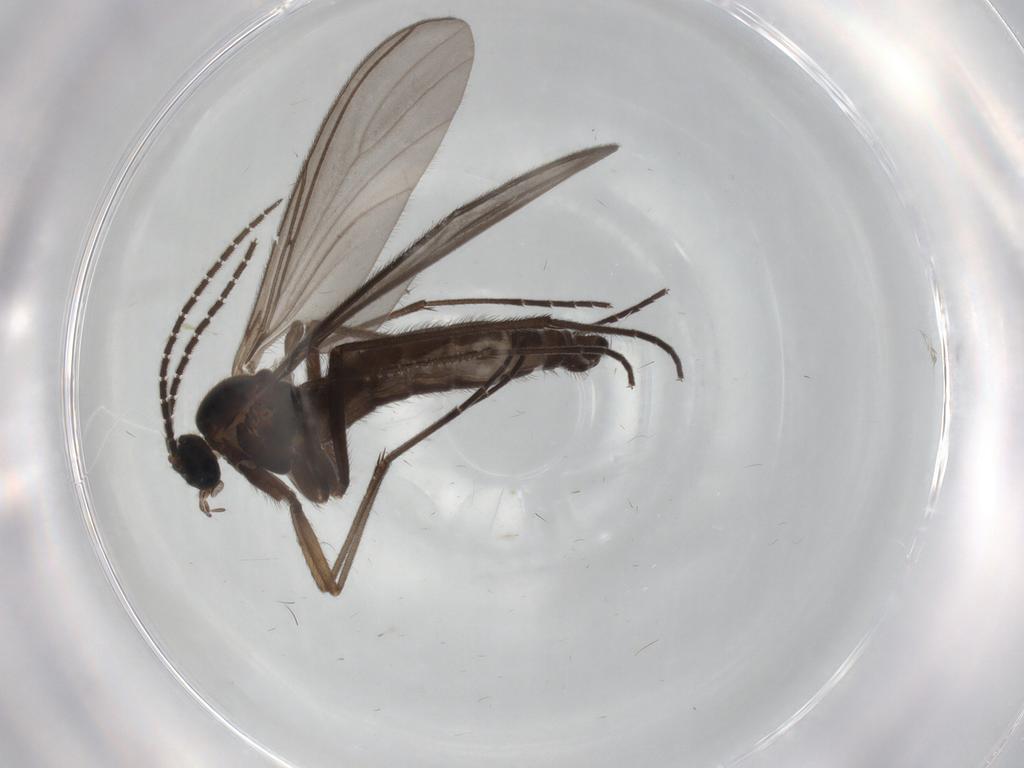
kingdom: Animalia
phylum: Arthropoda
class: Insecta
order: Diptera
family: Sciaridae
